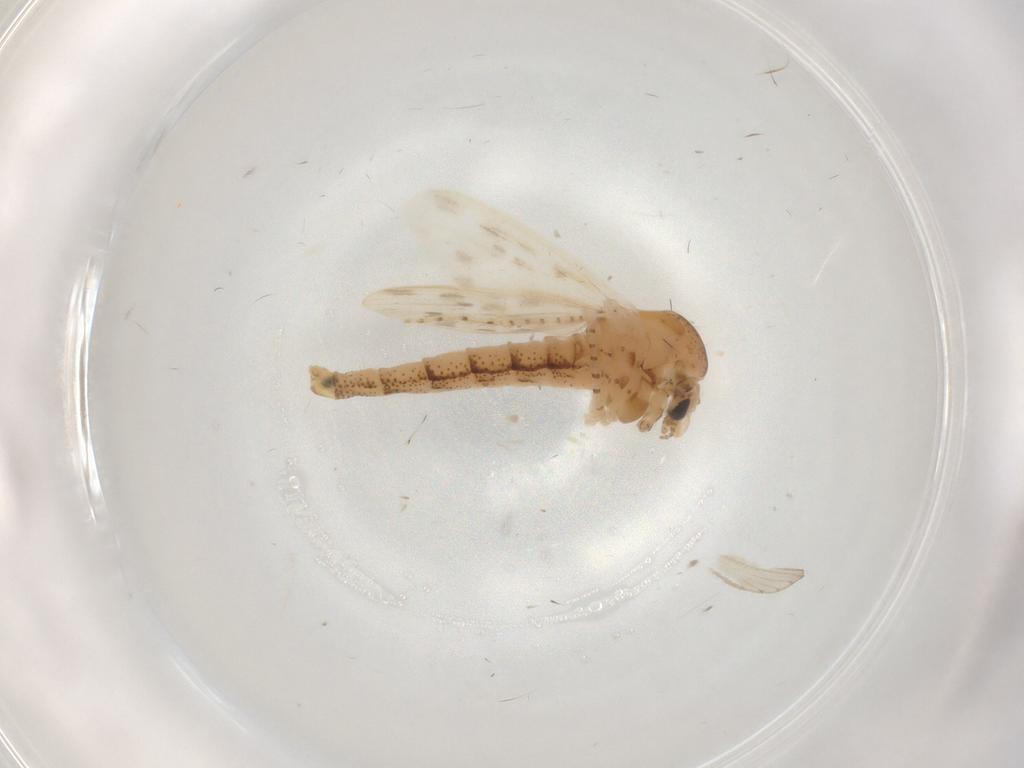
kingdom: Animalia
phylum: Arthropoda
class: Insecta
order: Diptera
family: Chaoboridae
